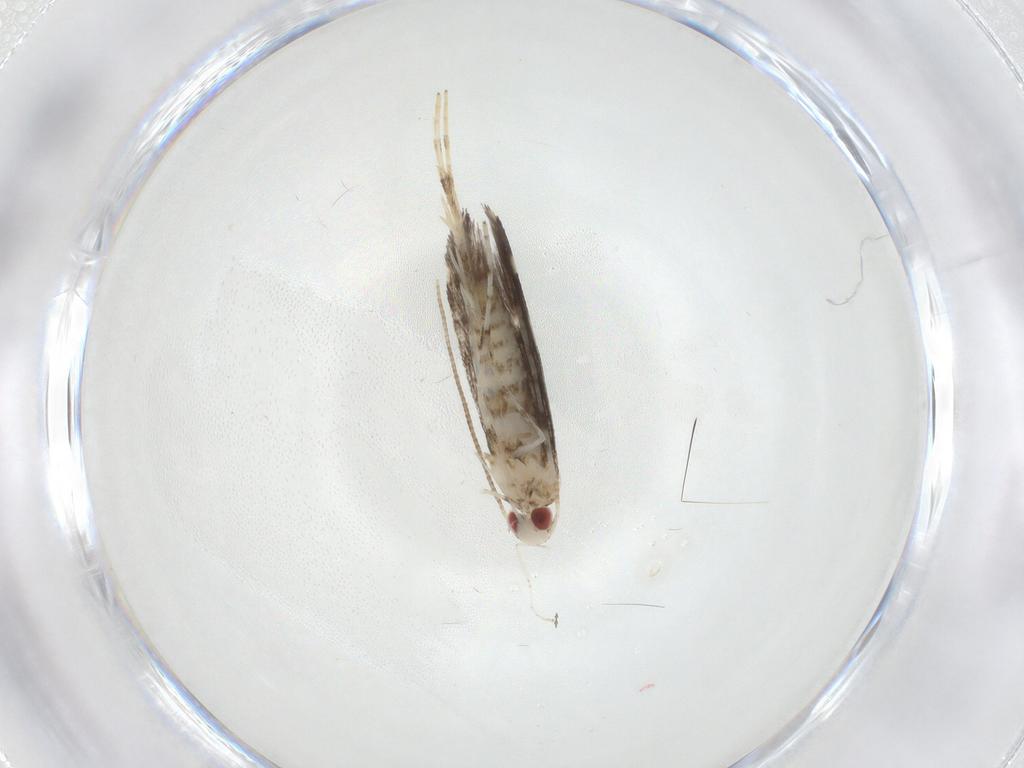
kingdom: Animalia
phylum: Arthropoda
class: Insecta
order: Lepidoptera
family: Gracillariidae
